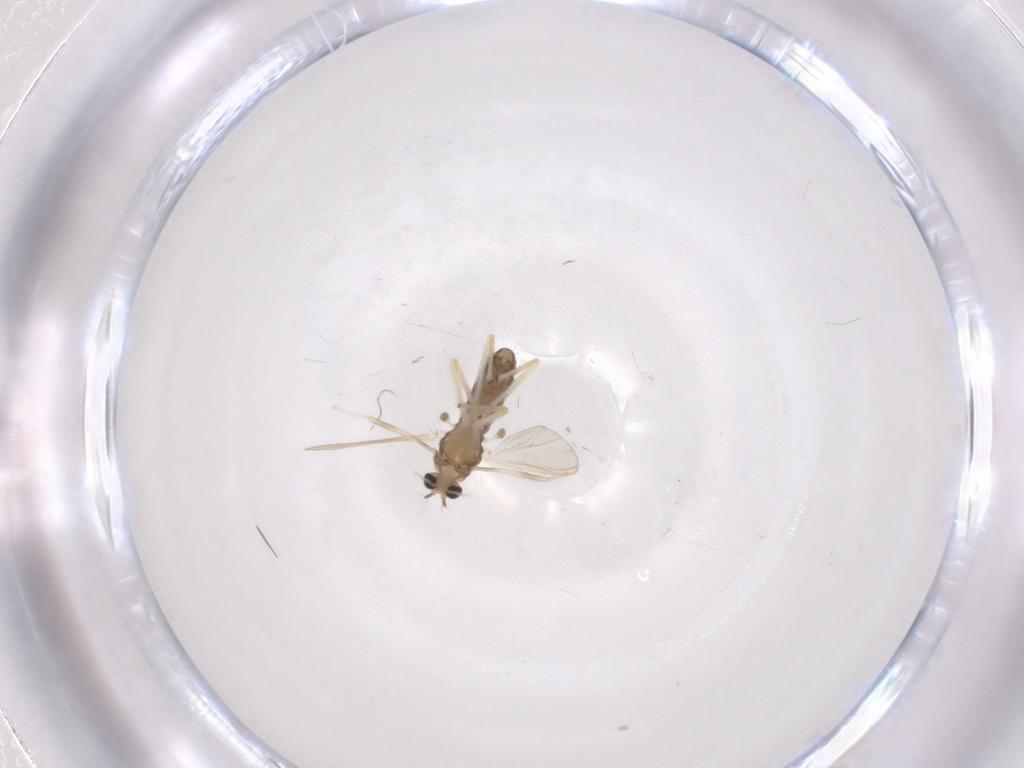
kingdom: Animalia
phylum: Arthropoda
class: Insecta
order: Diptera
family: Chironomidae
